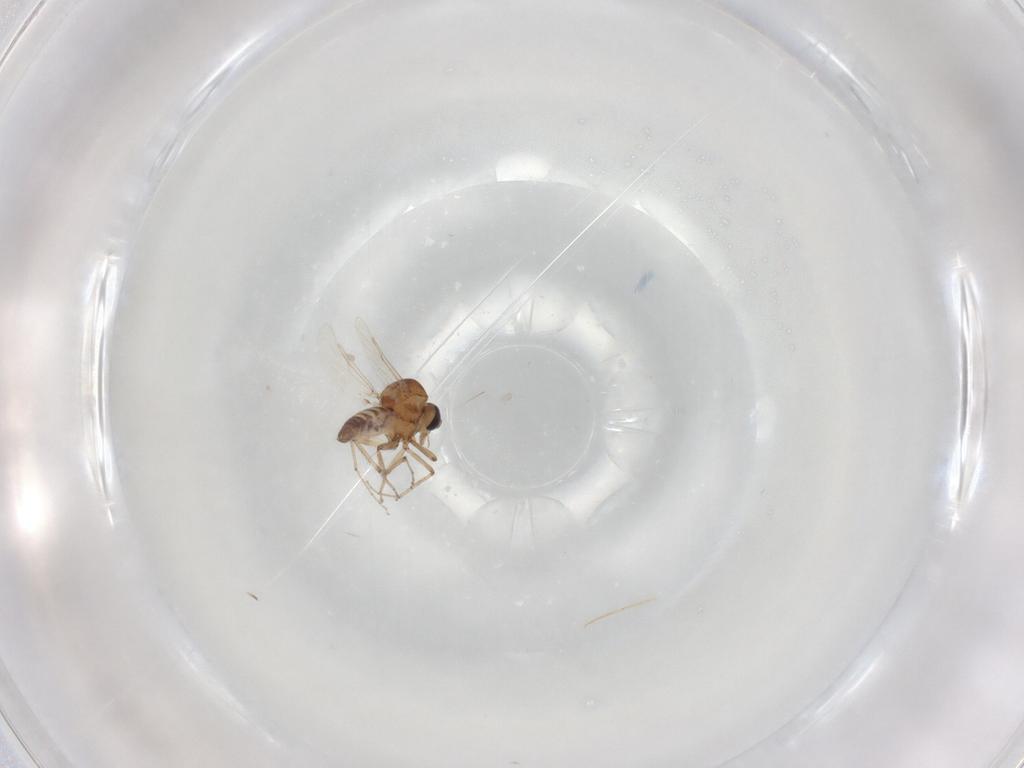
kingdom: Animalia
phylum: Arthropoda
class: Insecta
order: Diptera
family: Ceratopogonidae
